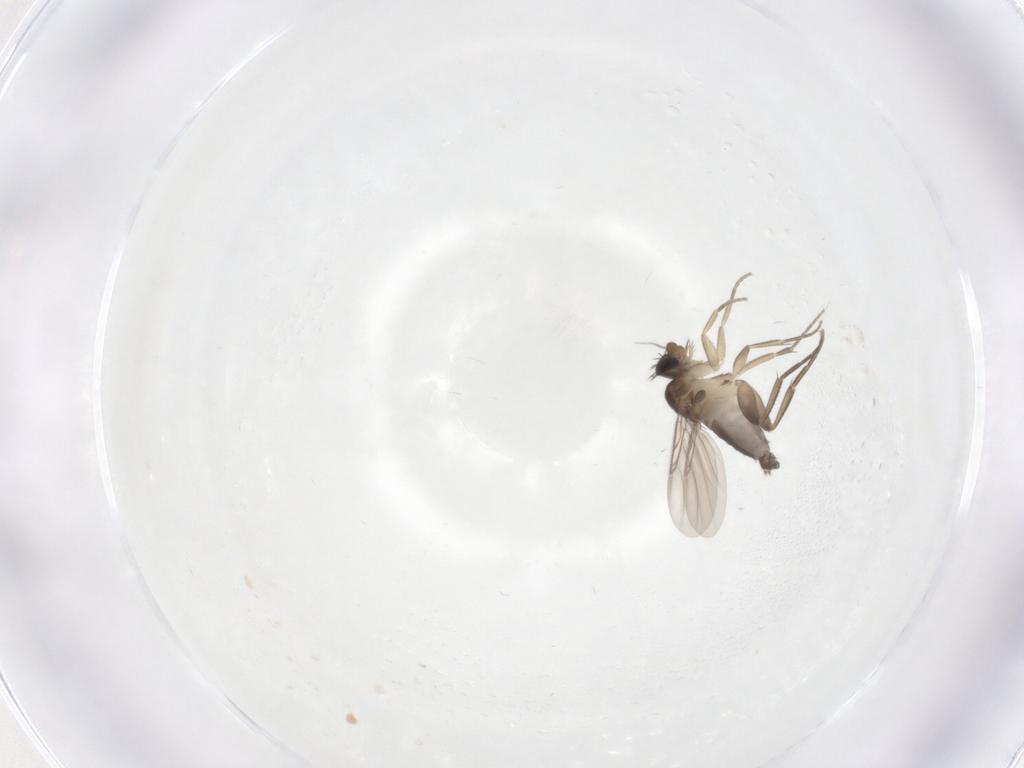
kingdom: Animalia
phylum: Arthropoda
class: Insecta
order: Diptera
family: Phoridae
